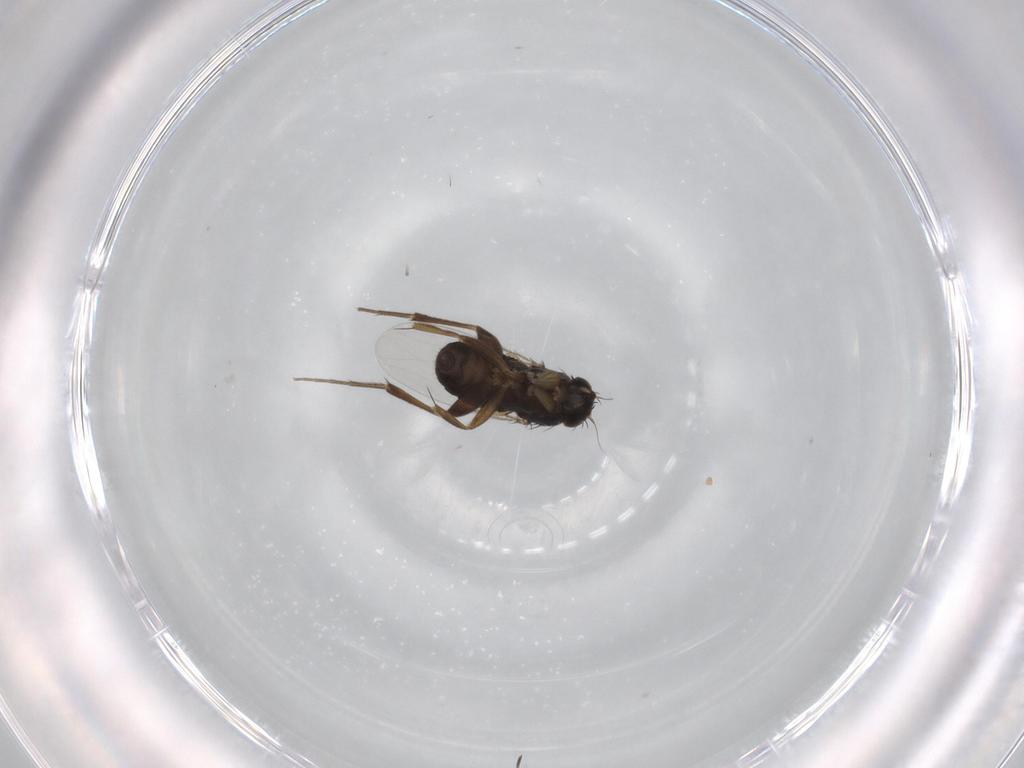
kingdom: Animalia
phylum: Arthropoda
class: Insecta
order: Diptera
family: Phoridae
